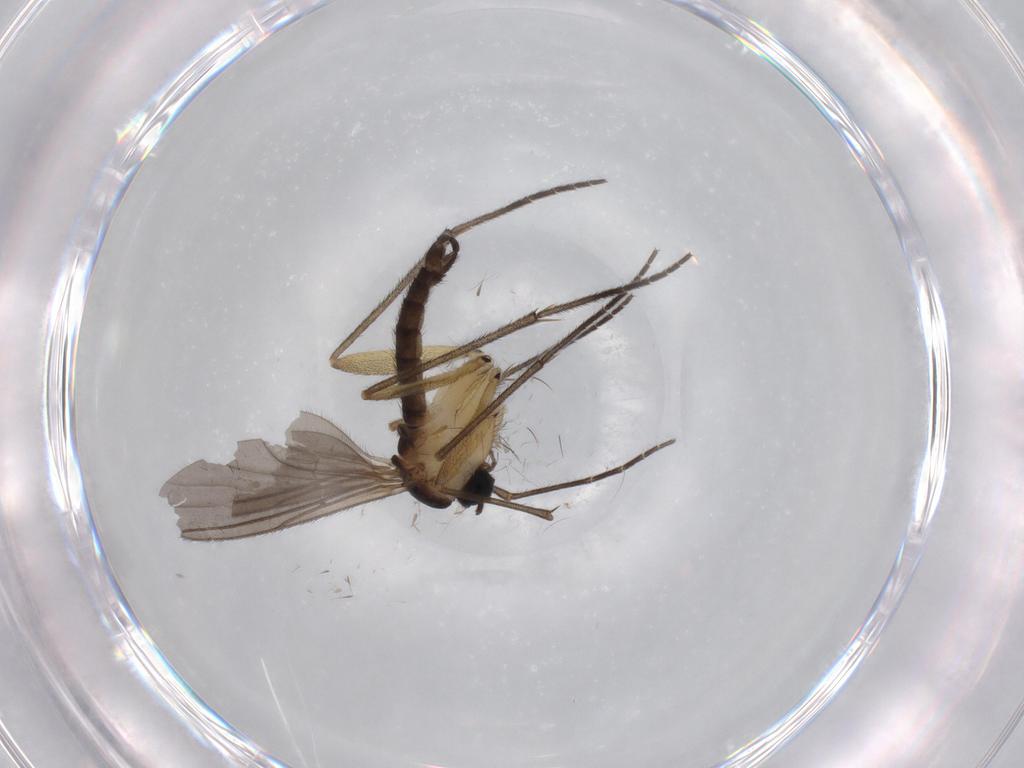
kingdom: Animalia
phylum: Arthropoda
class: Insecta
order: Diptera
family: Sciaridae
